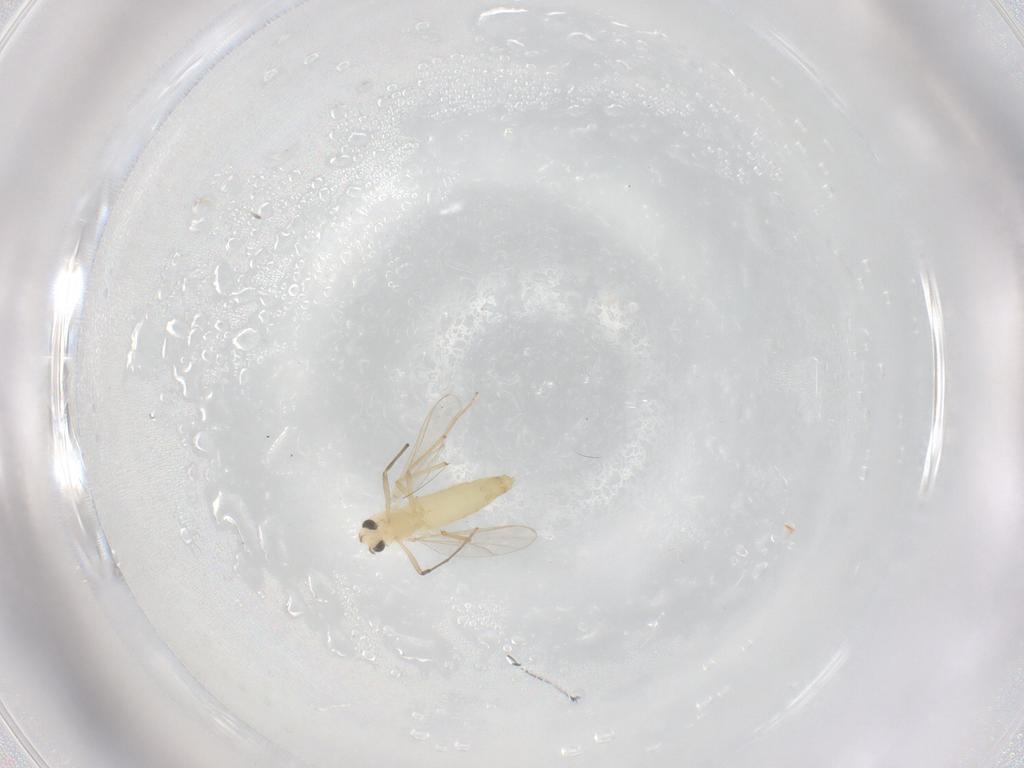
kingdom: Animalia
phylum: Arthropoda
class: Insecta
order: Diptera
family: Chironomidae
